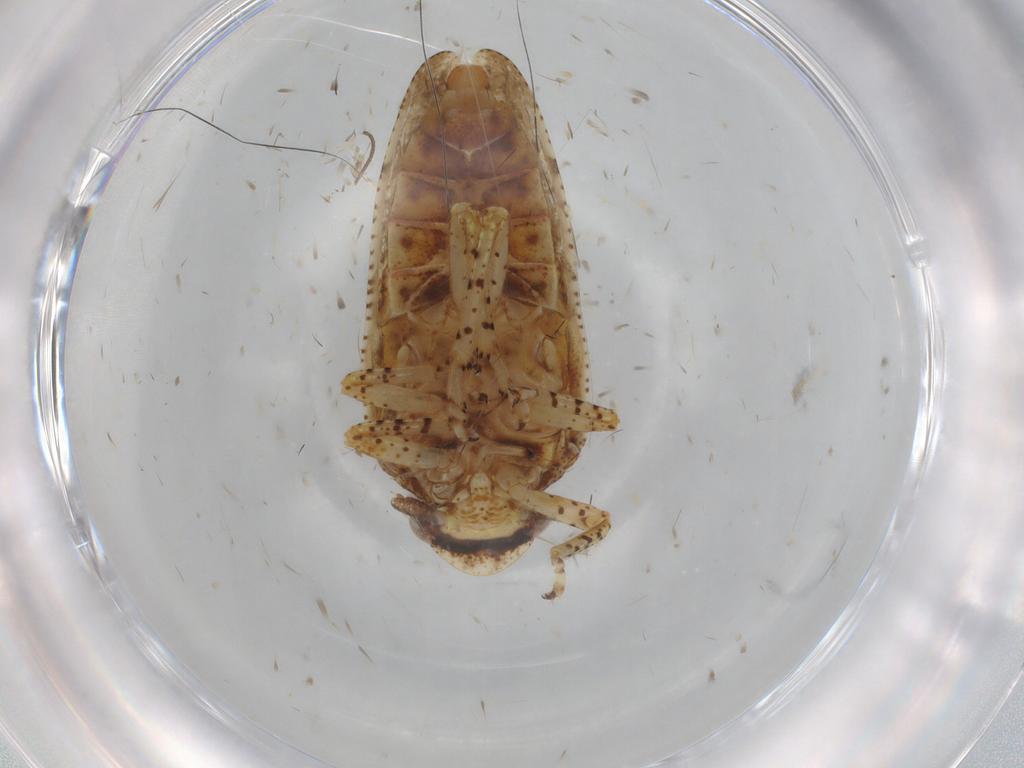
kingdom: Animalia
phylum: Arthropoda
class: Insecta
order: Hemiptera
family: Tettigometridae
